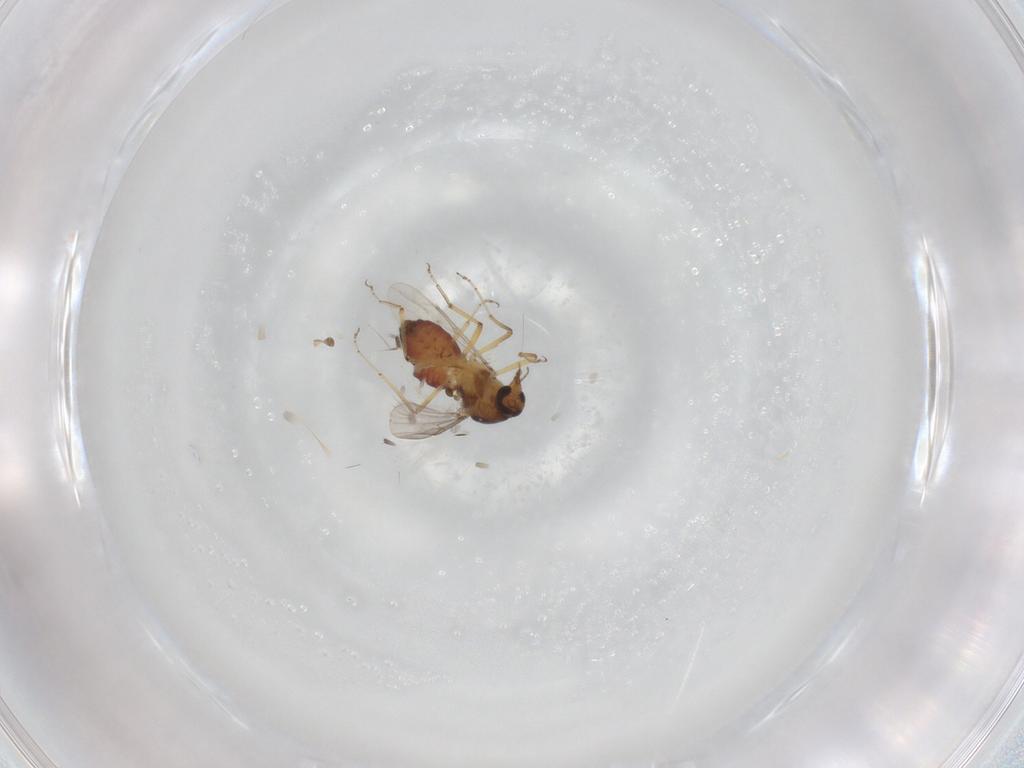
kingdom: Animalia
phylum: Arthropoda
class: Insecta
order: Diptera
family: Ceratopogonidae
